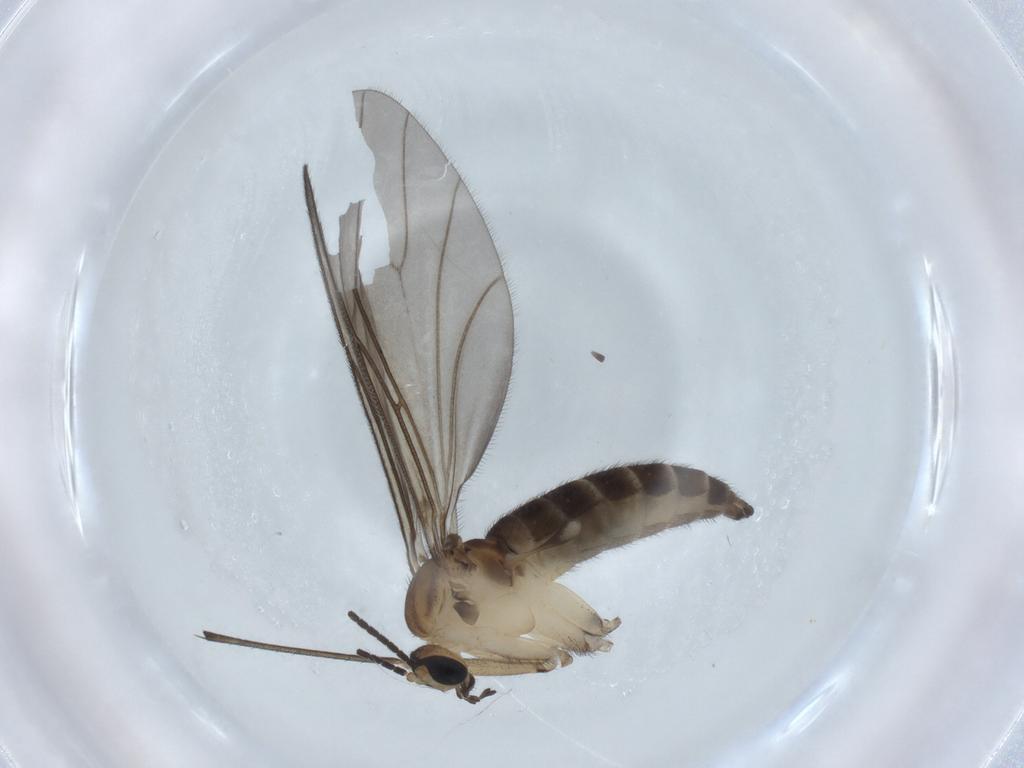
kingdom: Animalia
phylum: Arthropoda
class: Insecta
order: Diptera
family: Sciaridae
